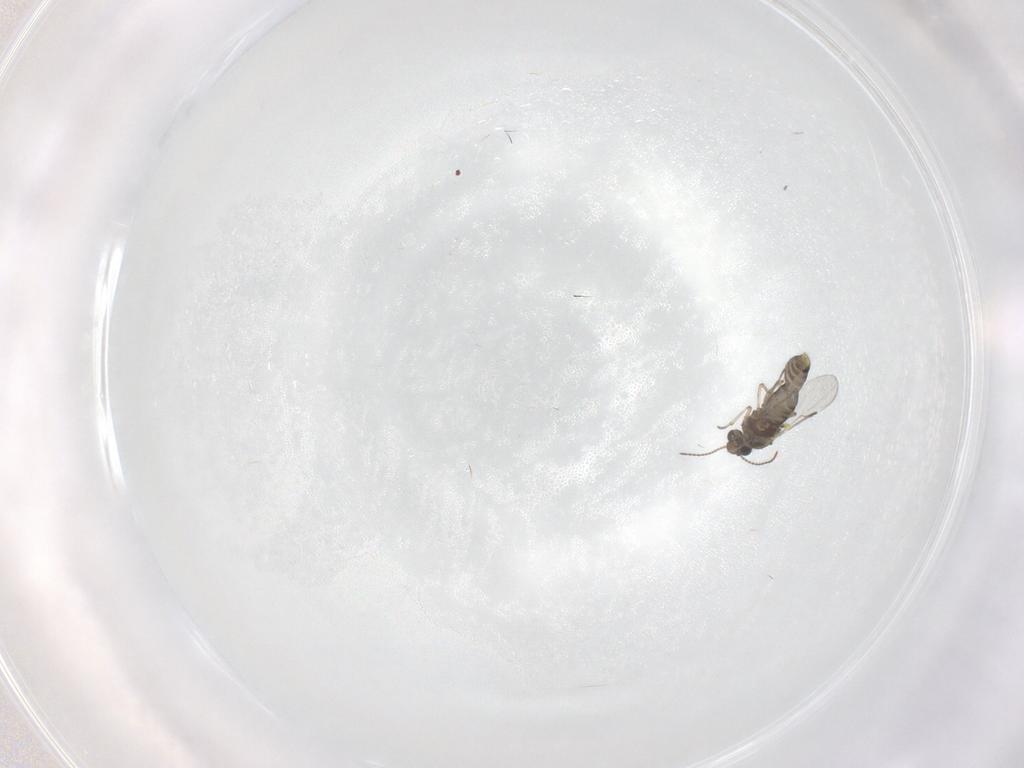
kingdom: Animalia
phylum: Arthropoda
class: Insecta
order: Diptera
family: Ceratopogonidae
